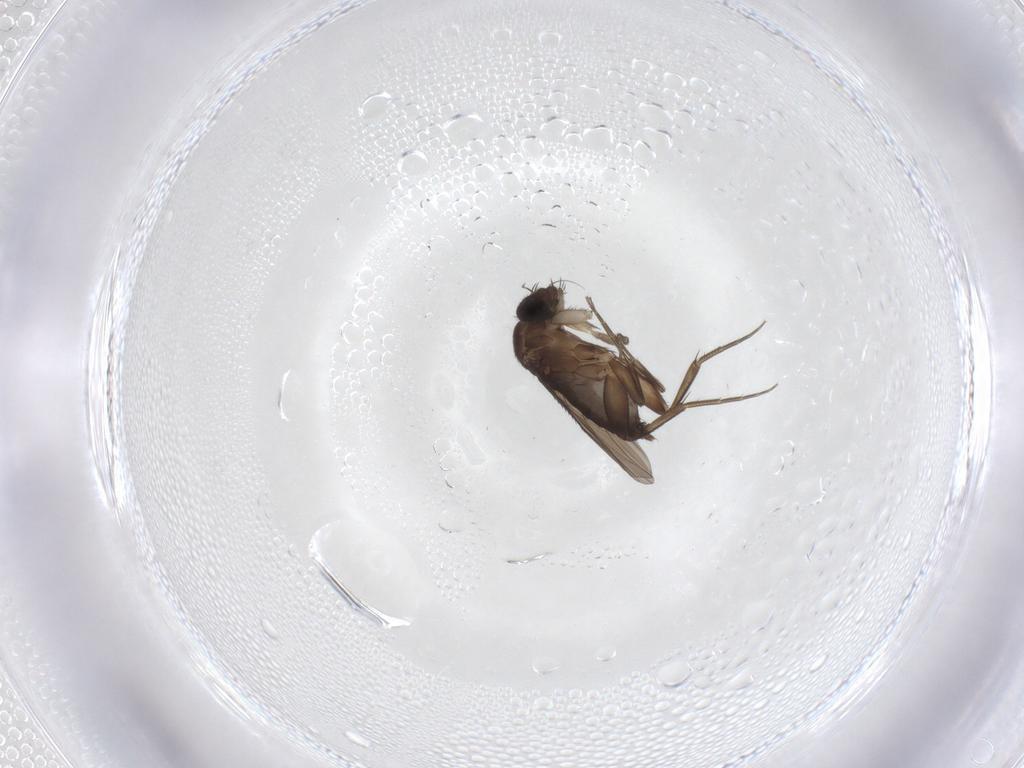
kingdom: Animalia
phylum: Arthropoda
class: Insecta
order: Diptera
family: Phoridae
